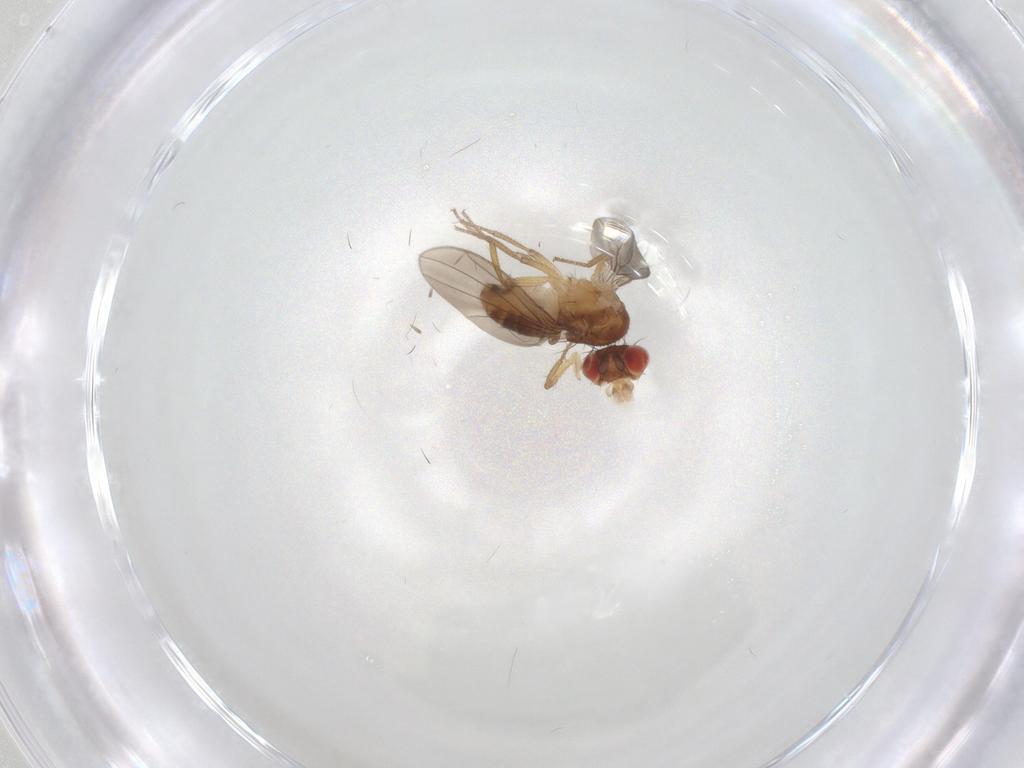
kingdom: Animalia
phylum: Arthropoda
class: Insecta
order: Diptera
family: Drosophilidae
